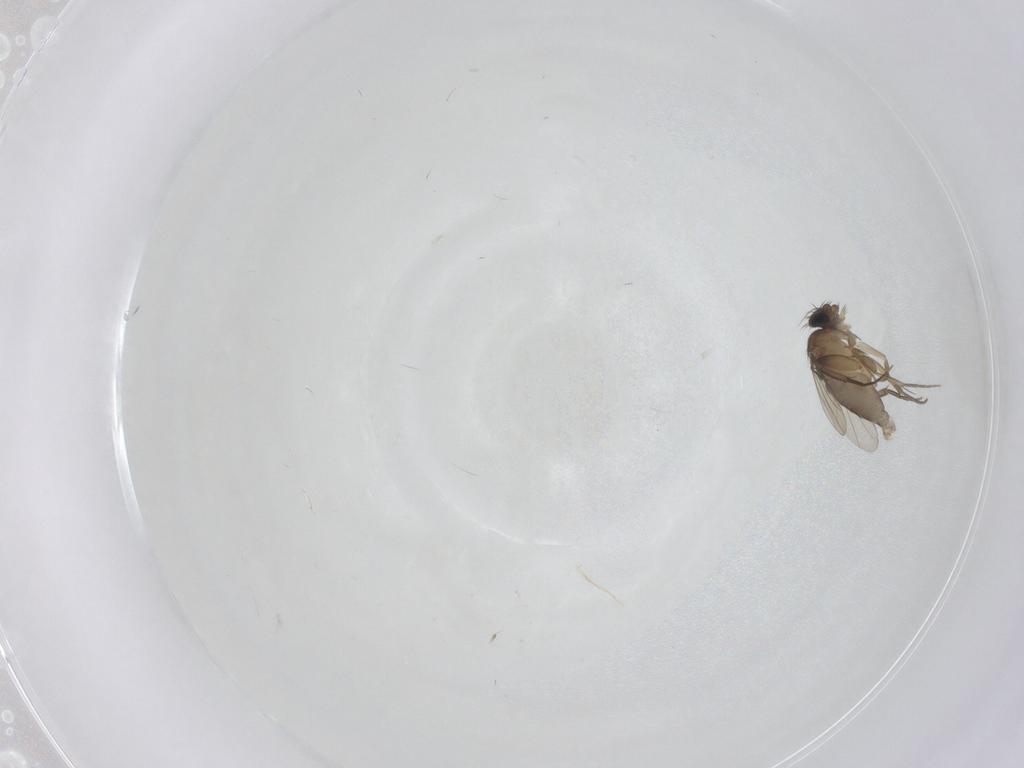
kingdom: Animalia
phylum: Arthropoda
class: Insecta
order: Diptera
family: Phoridae
